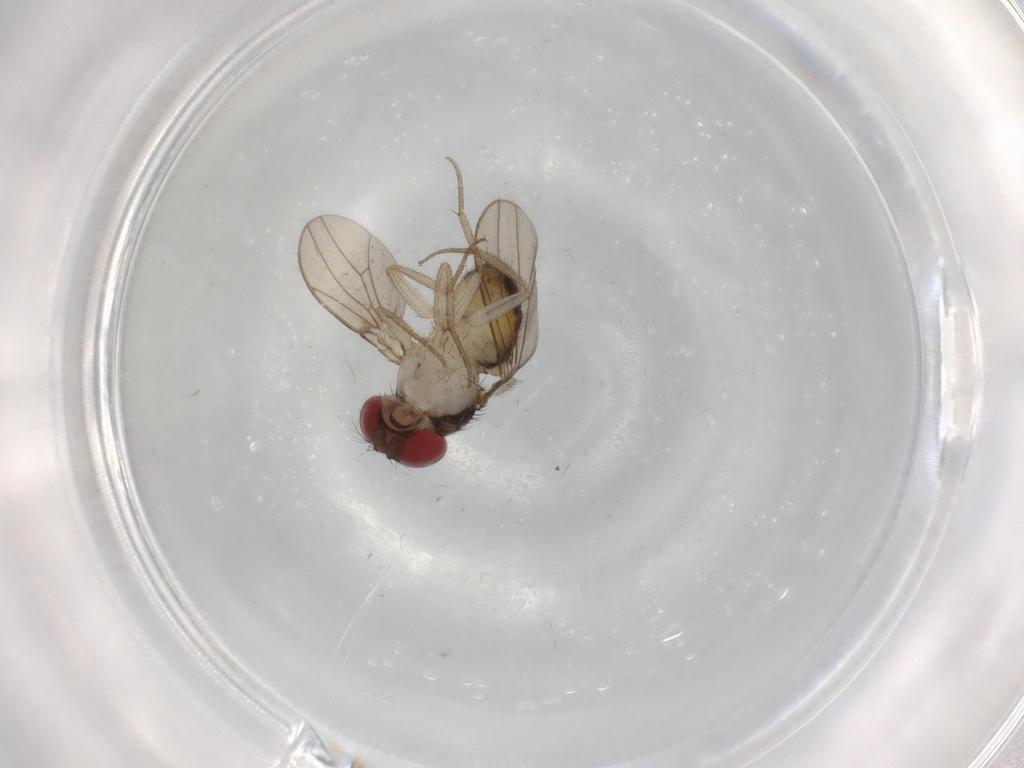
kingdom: Animalia
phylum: Arthropoda
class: Insecta
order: Diptera
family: Drosophilidae
